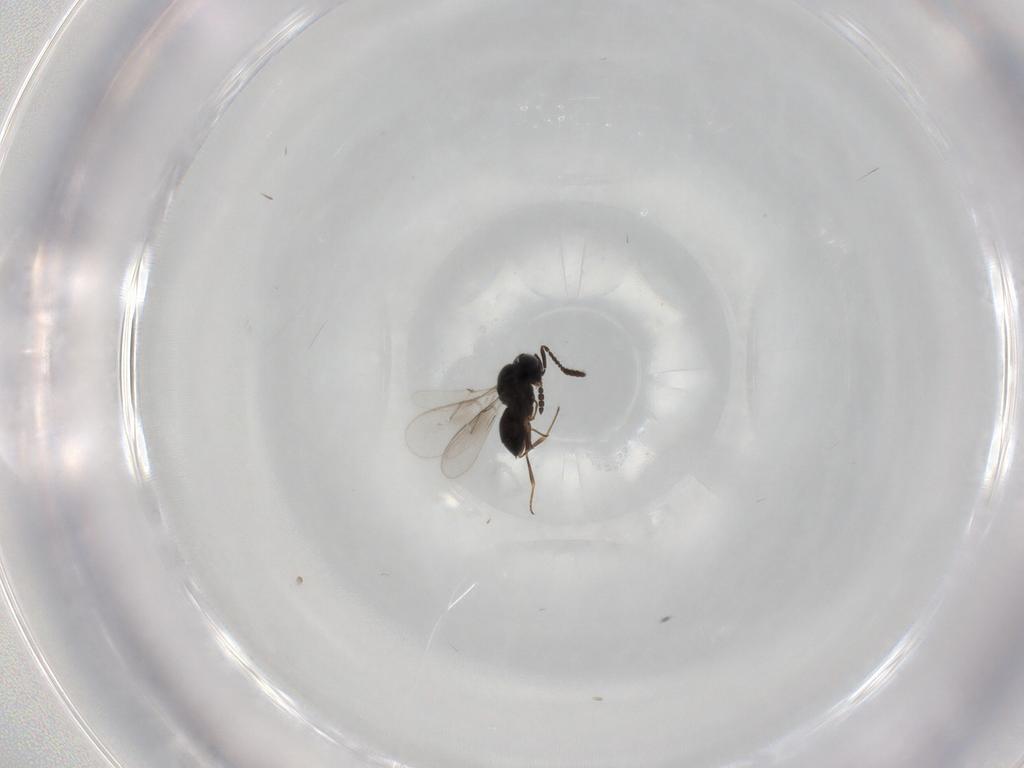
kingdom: Animalia
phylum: Arthropoda
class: Insecta
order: Hymenoptera
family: Scelionidae
